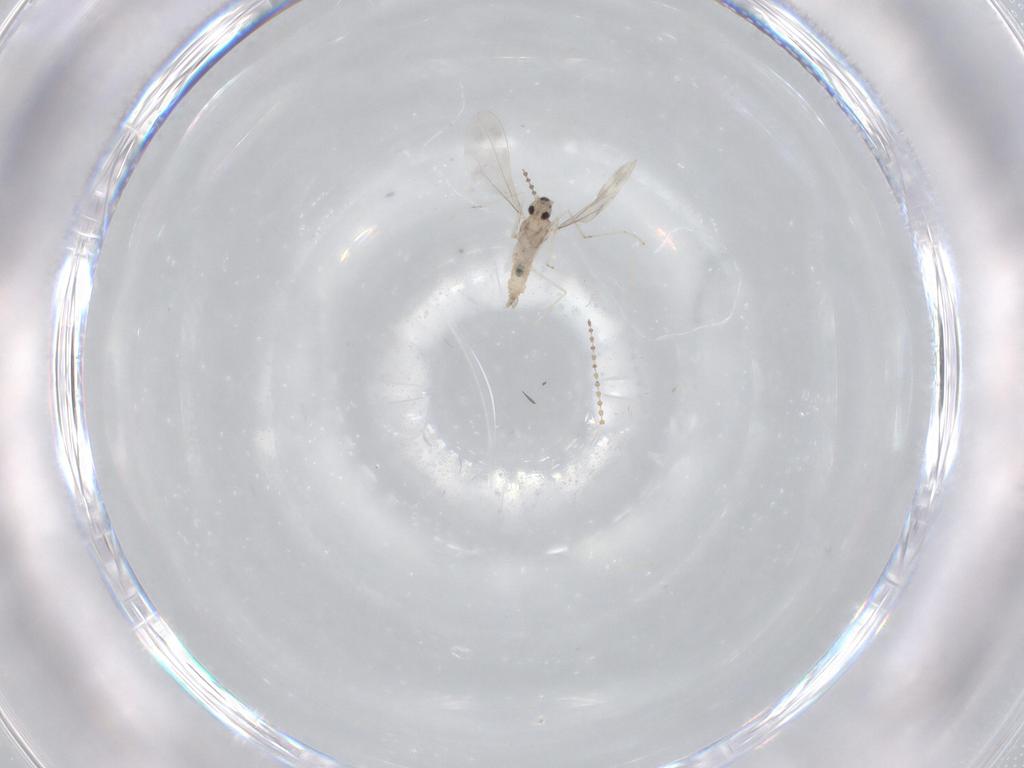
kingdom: Animalia
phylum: Arthropoda
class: Insecta
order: Diptera
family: Cecidomyiidae
